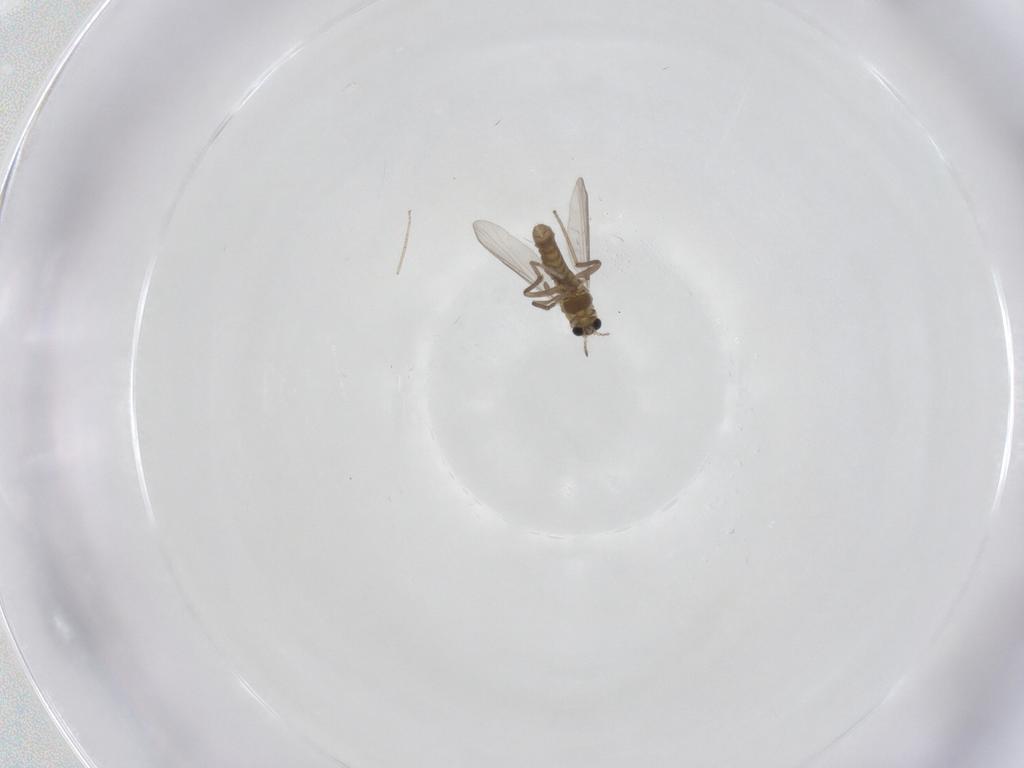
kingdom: Animalia
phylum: Arthropoda
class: Insecta
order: Diptera
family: Chironomidae
